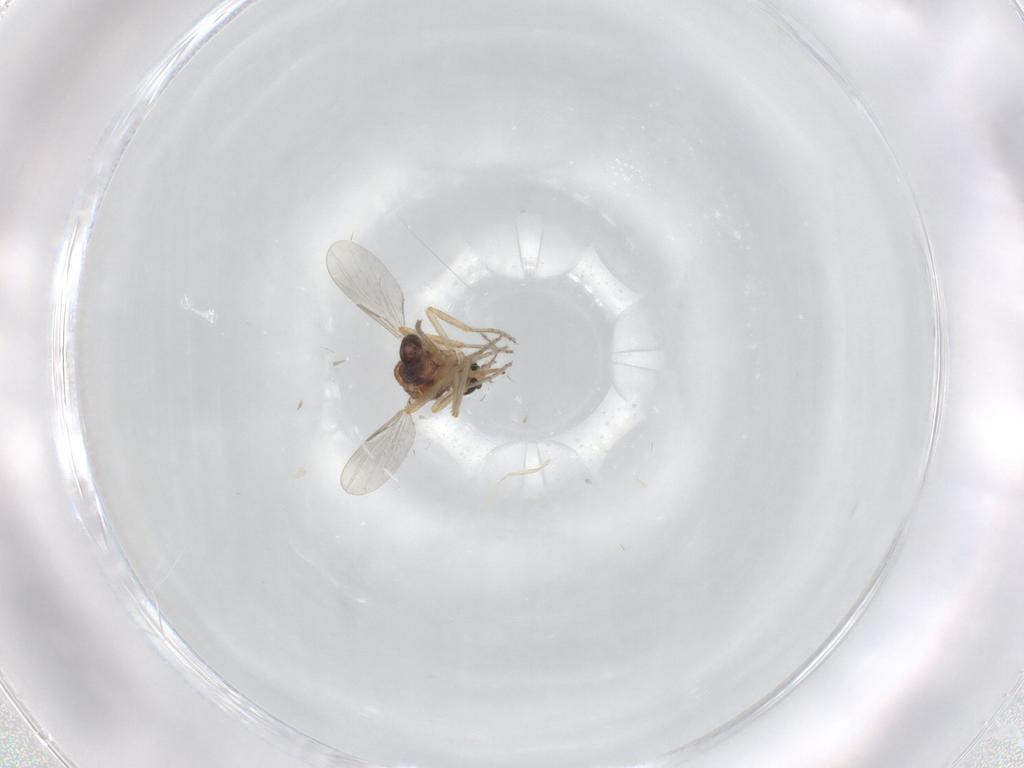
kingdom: Animalia
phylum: Arthropoda
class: Insecta
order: Diptera
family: Ceratopogonidae
